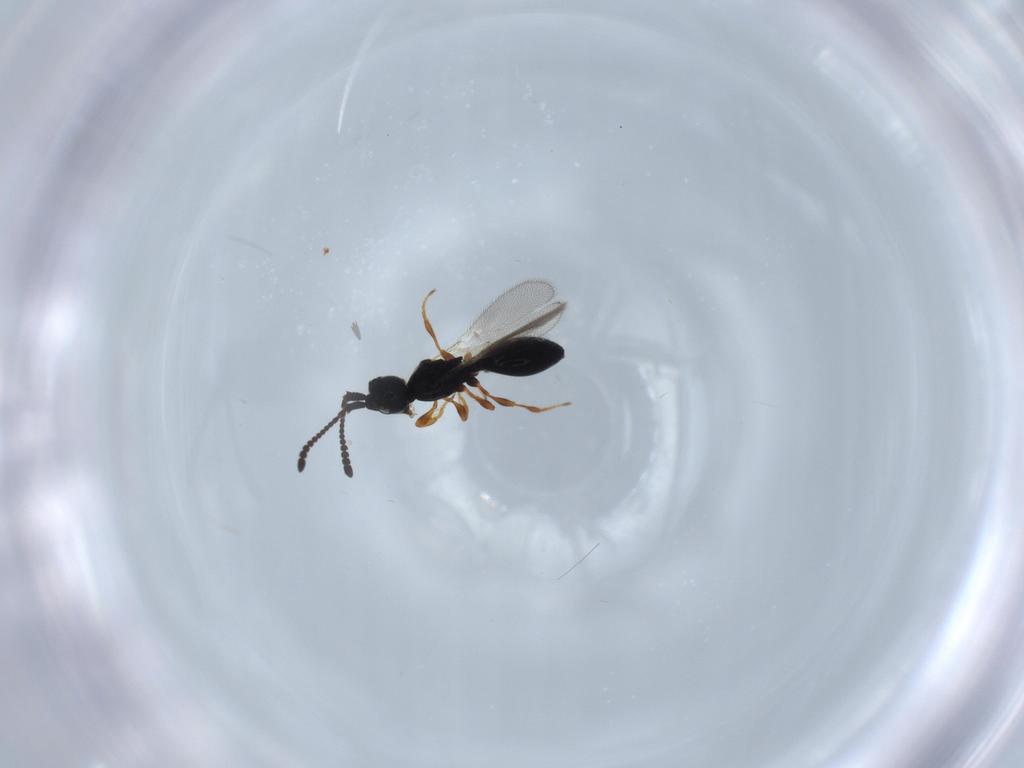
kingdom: Animalia
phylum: Arthropoda
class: Insecta
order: Hymenoptera
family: Diapriidae
